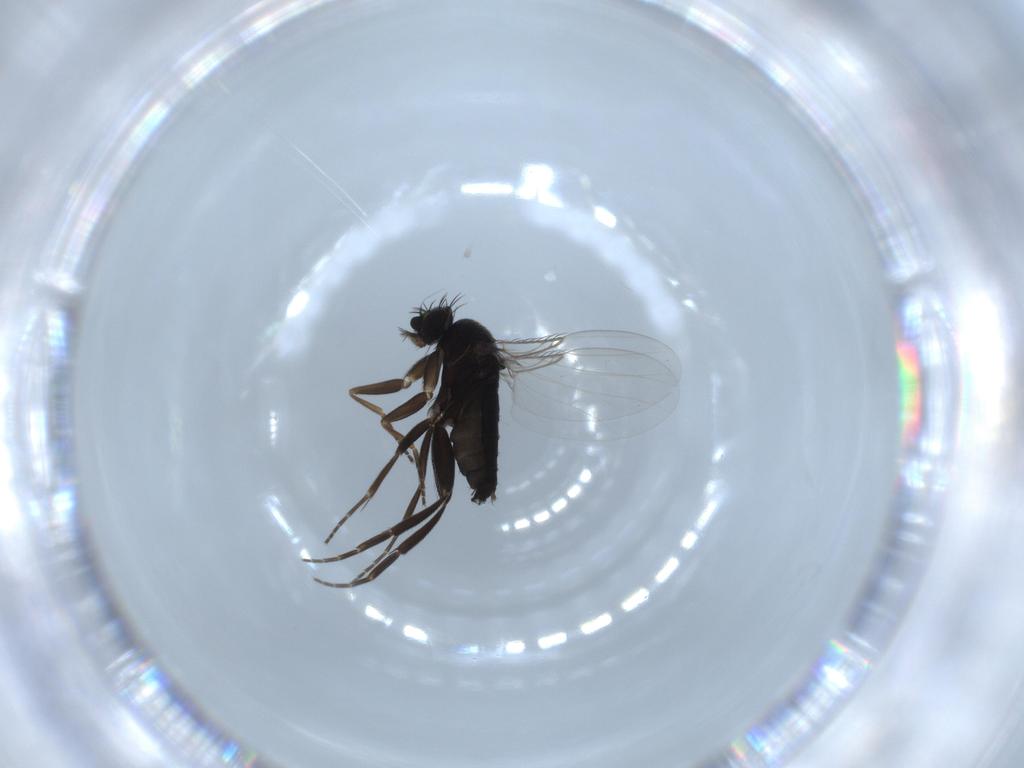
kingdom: Animalia
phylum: Arthropoda
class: Insecta
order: Diptera
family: Phoridae
